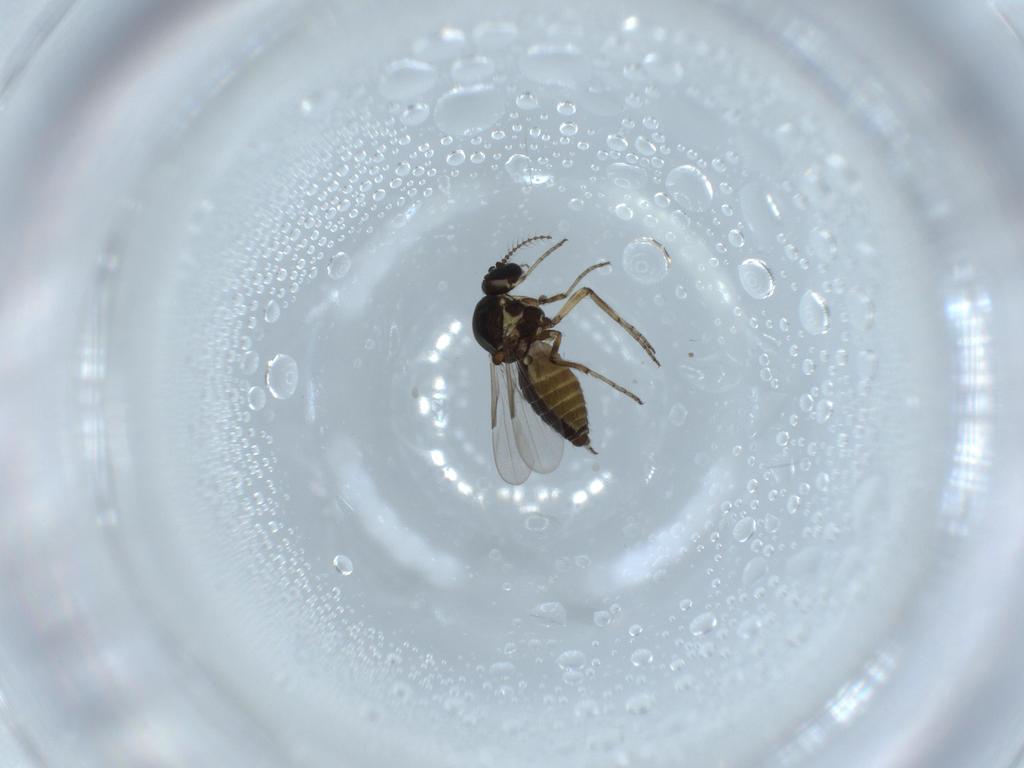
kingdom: Animalia
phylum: Arthropoda
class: Insecta
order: Diptera
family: Ceratopogonidae
